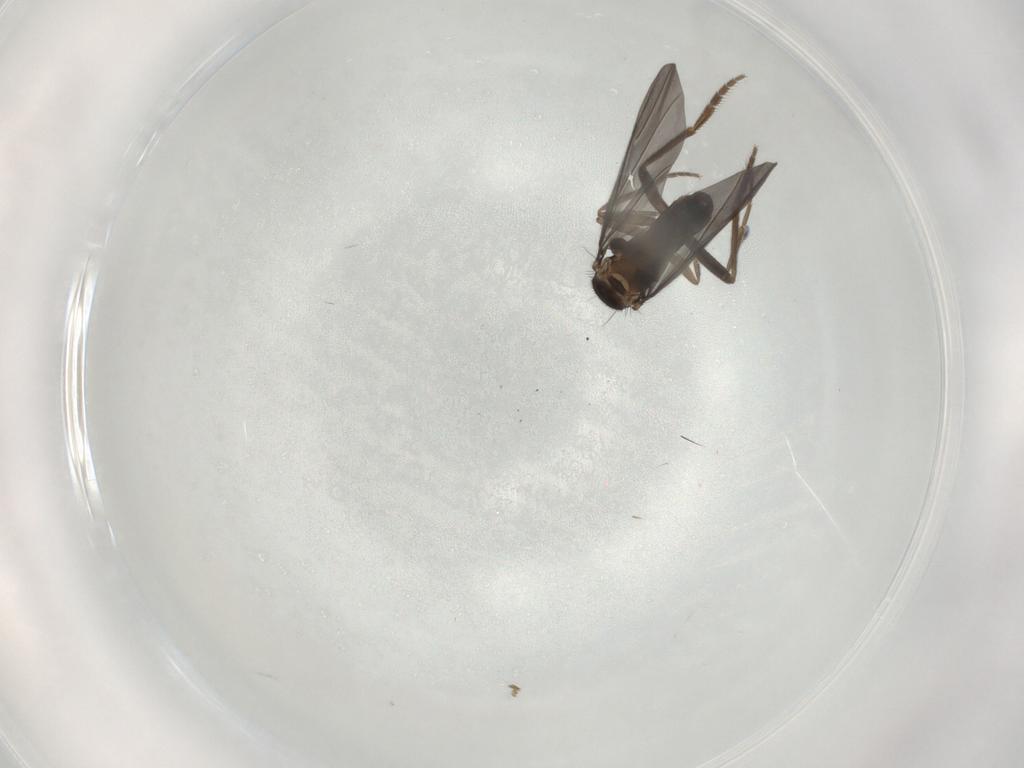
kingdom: Animalia
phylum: Arthropoda
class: Insecta
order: Diptera
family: Phoridae
